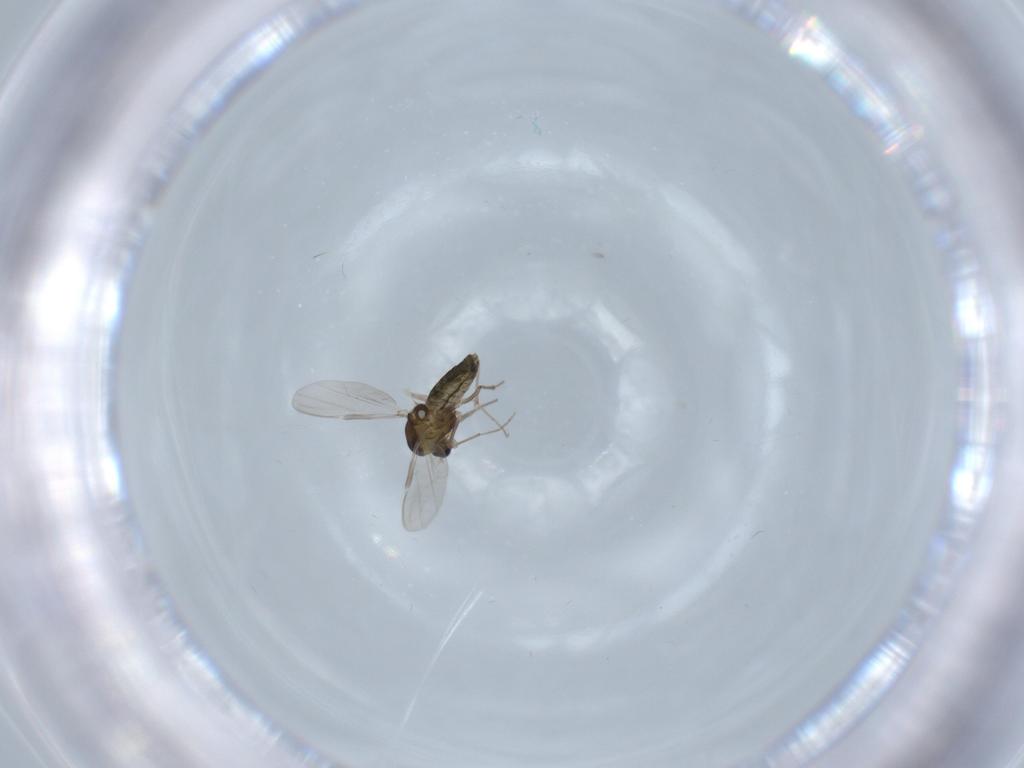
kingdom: Animalia
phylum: Arthropoda
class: Insecta
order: Diptera
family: Chironomidae
